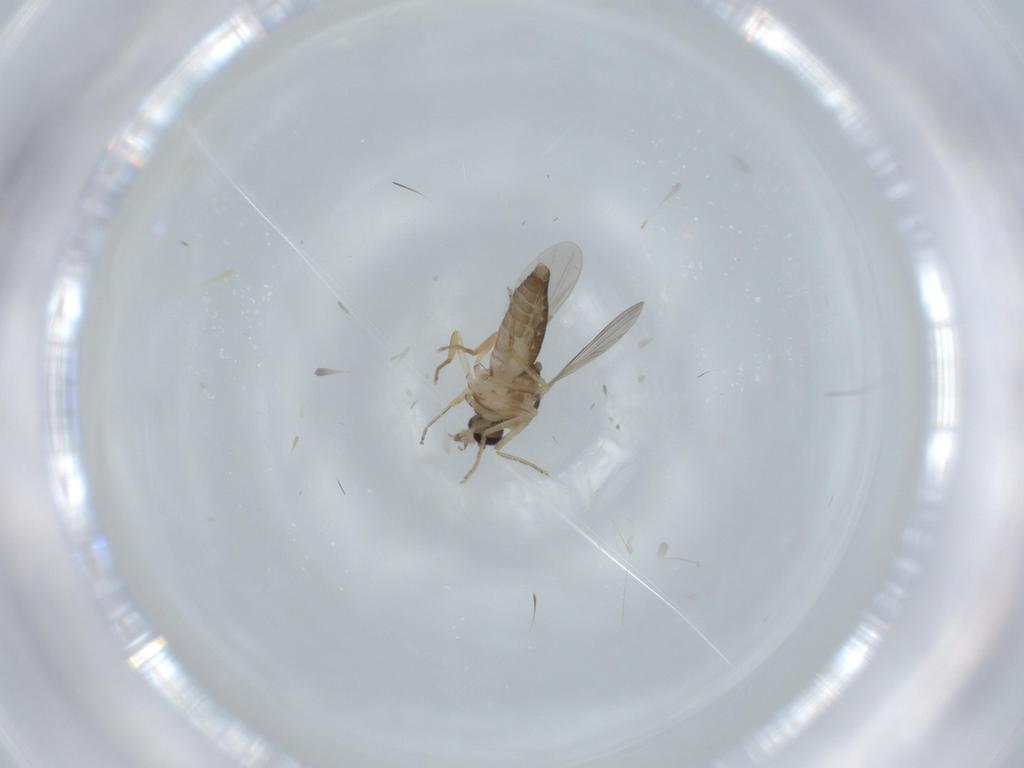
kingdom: Animalia
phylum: Arthropoda
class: Insecta
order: Diptera
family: Ceratopogonidae
